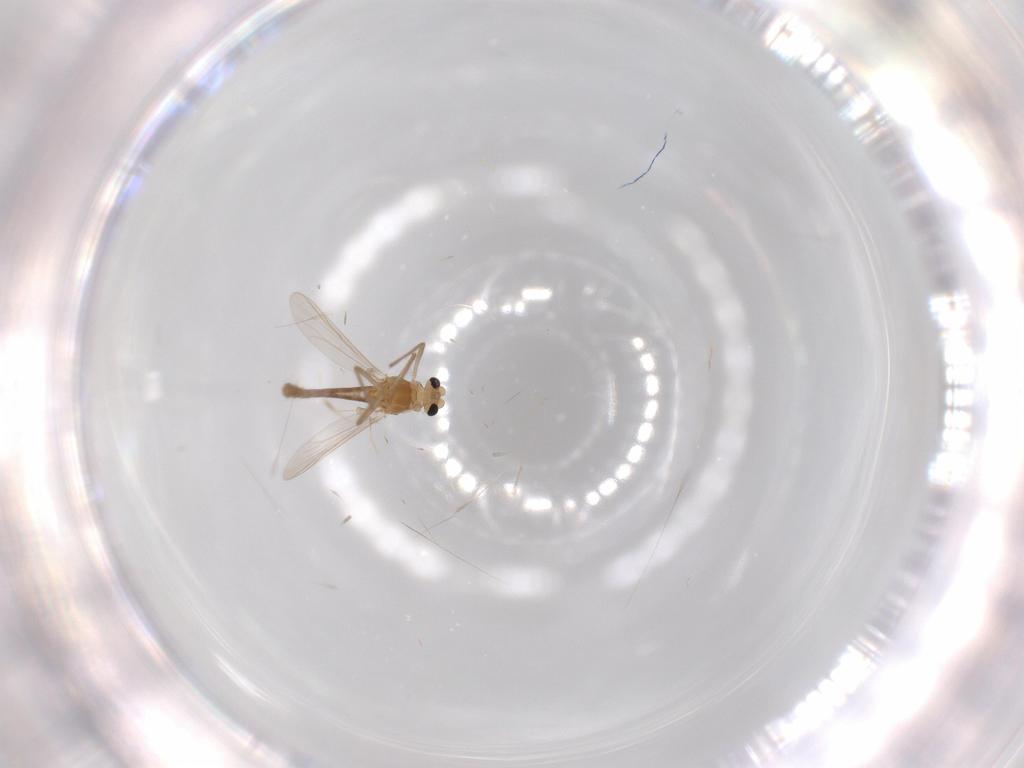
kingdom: Animalia
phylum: Arthropoda
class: Insecta
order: Diptera
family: Chironomidae
